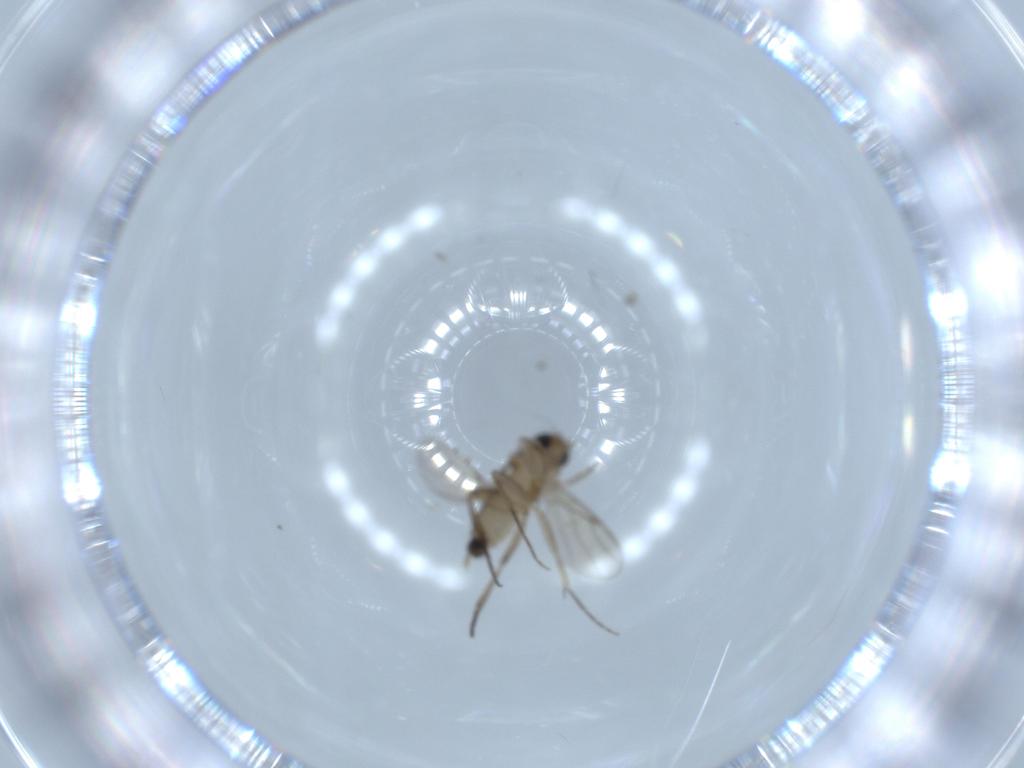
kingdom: Animalia
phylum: Arthropoda
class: Insecta
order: Diptera
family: Phoridae
